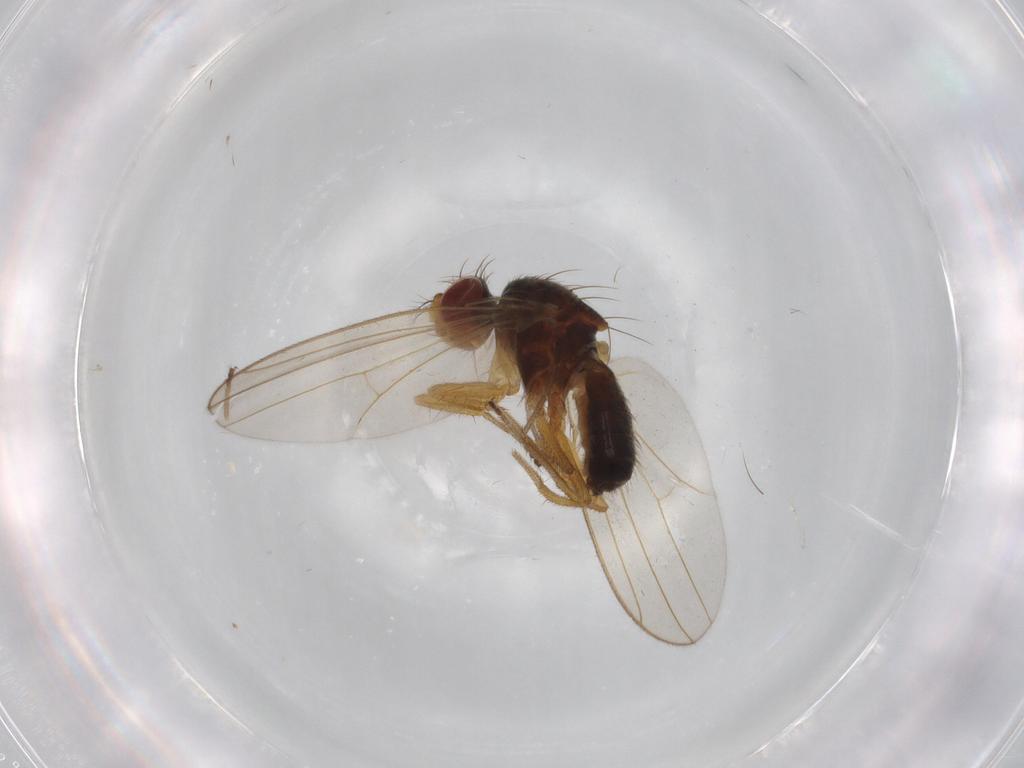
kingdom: Animalia
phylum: Arthropoda
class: Insecta
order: Diptera
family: Drosophilidae
